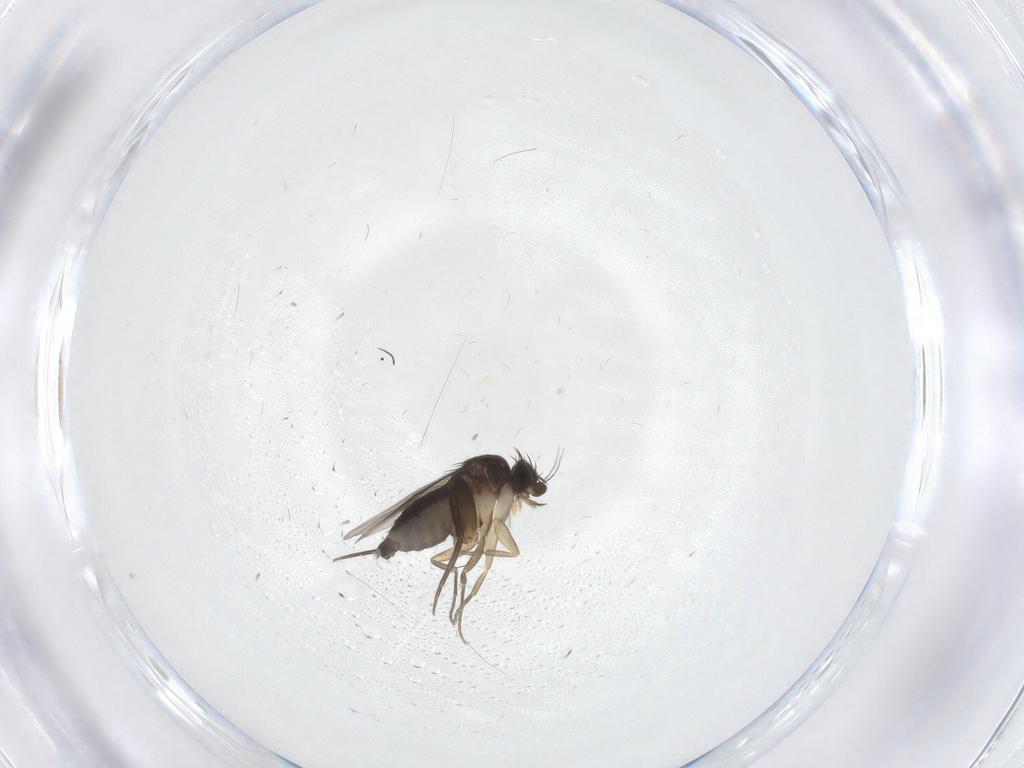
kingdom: Animalia
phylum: Arthropoda
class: Insecta
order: Diptera
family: Phoridae
